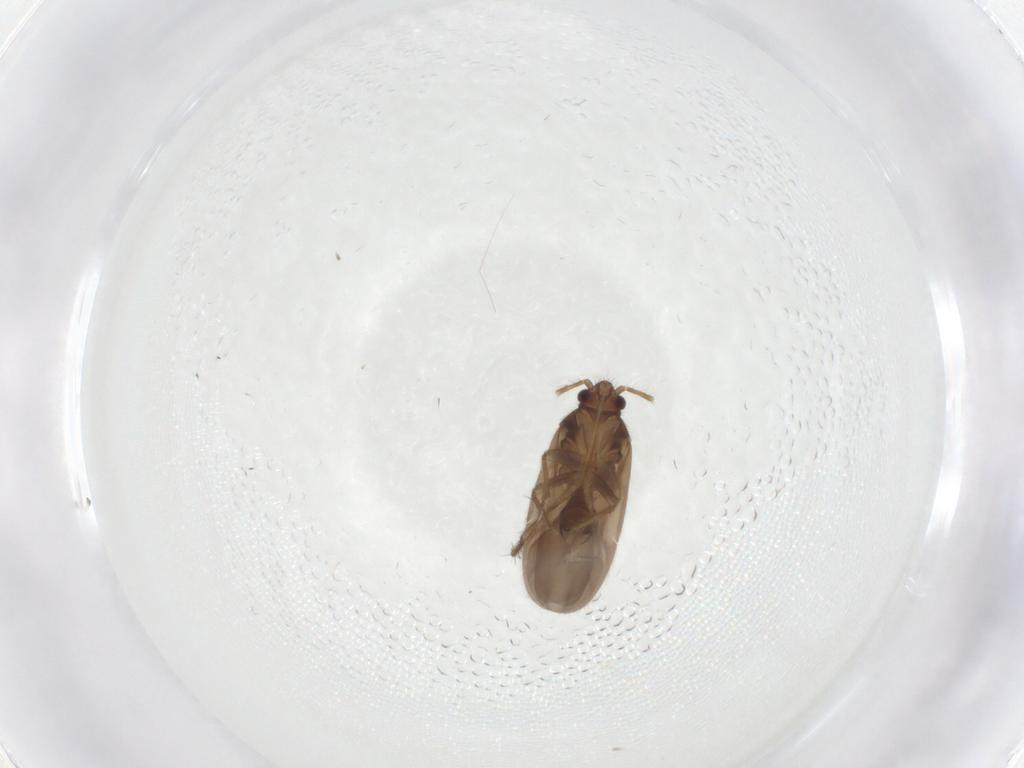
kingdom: Animalia
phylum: Arthropoda
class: Insecta
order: Hemiptera
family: Ceratocombidae
